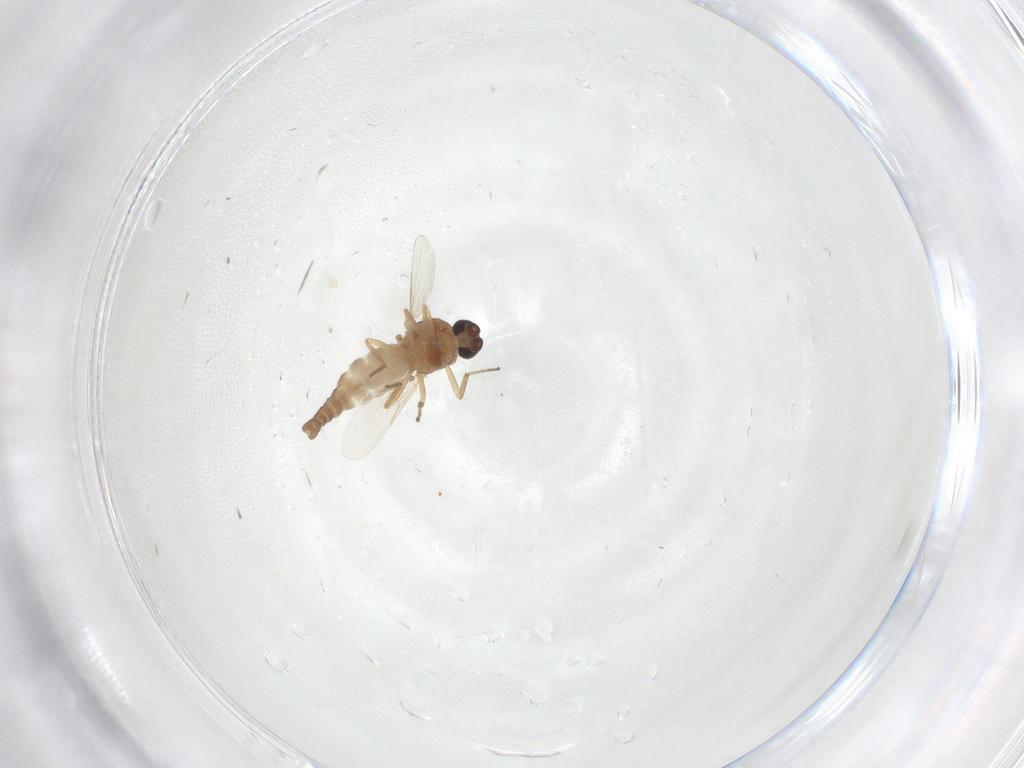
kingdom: Animalia
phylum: Arthropoda
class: Insecta
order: Diptera
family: Ceratopogonidae
